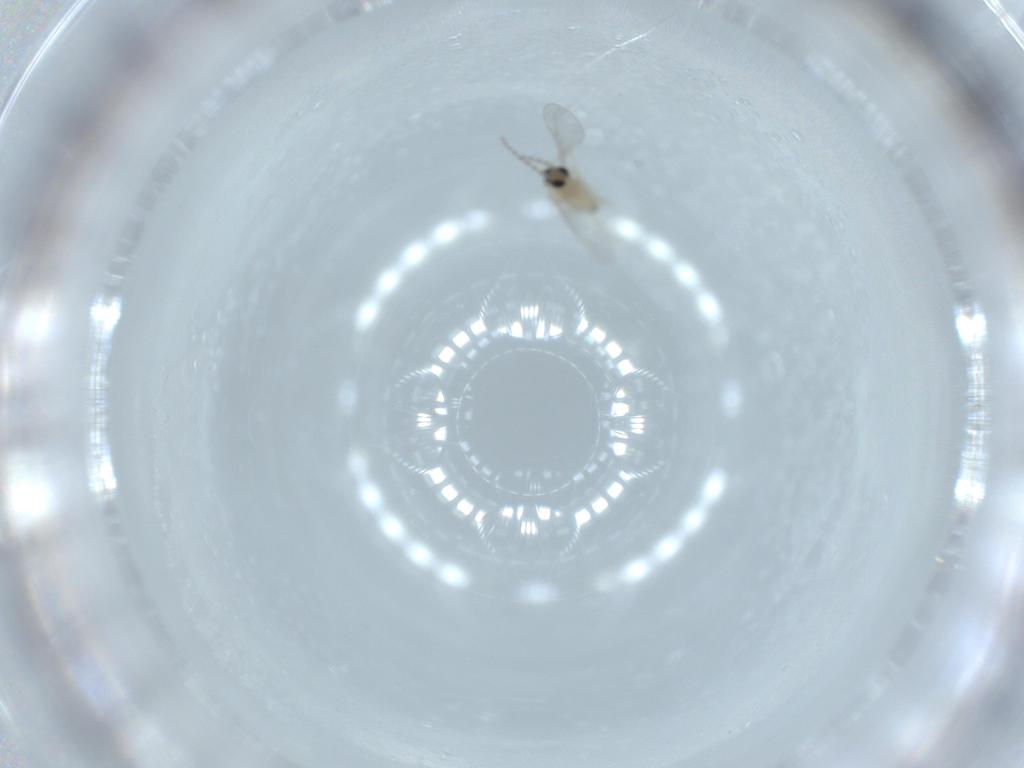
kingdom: Animalia
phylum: Arthropoda
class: Insecta
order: Diptera
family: Cecidomyiidae
